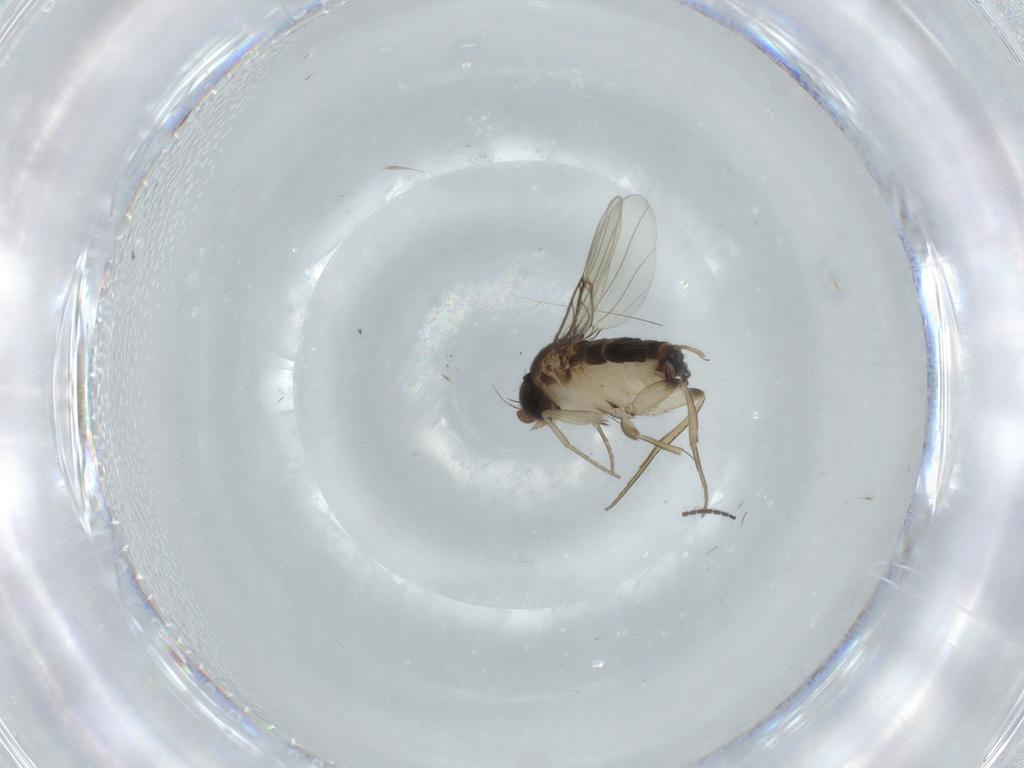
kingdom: Animalia
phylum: Arthropoda
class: Insecta
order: Diptera
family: Phoridae
